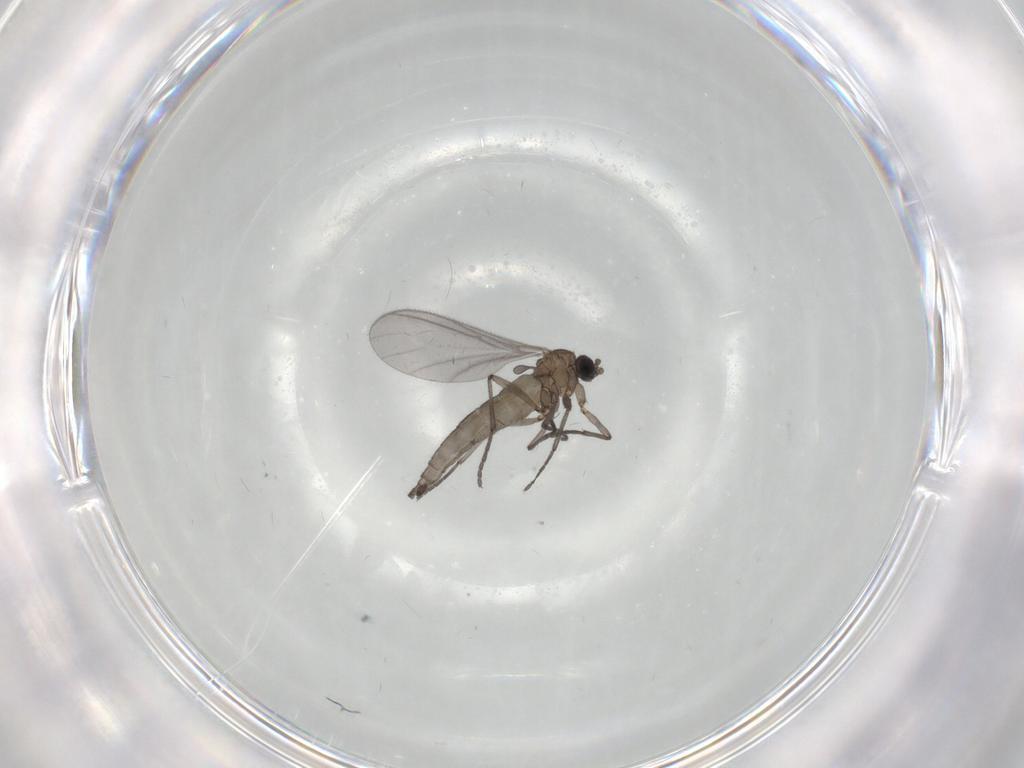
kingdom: Animalia
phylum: Arthropoda
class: Insecta
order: Diptera
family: Sciaridae
